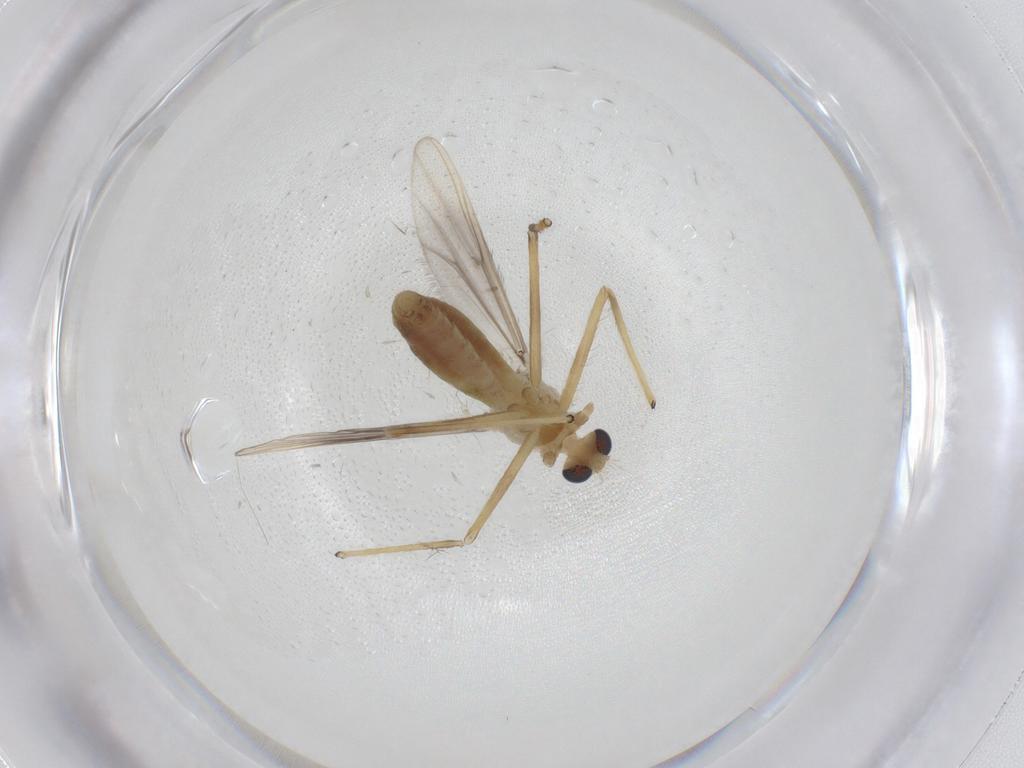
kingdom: Animalia
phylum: Arthropoda
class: Insecta
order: Diptera
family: Chironomidae
